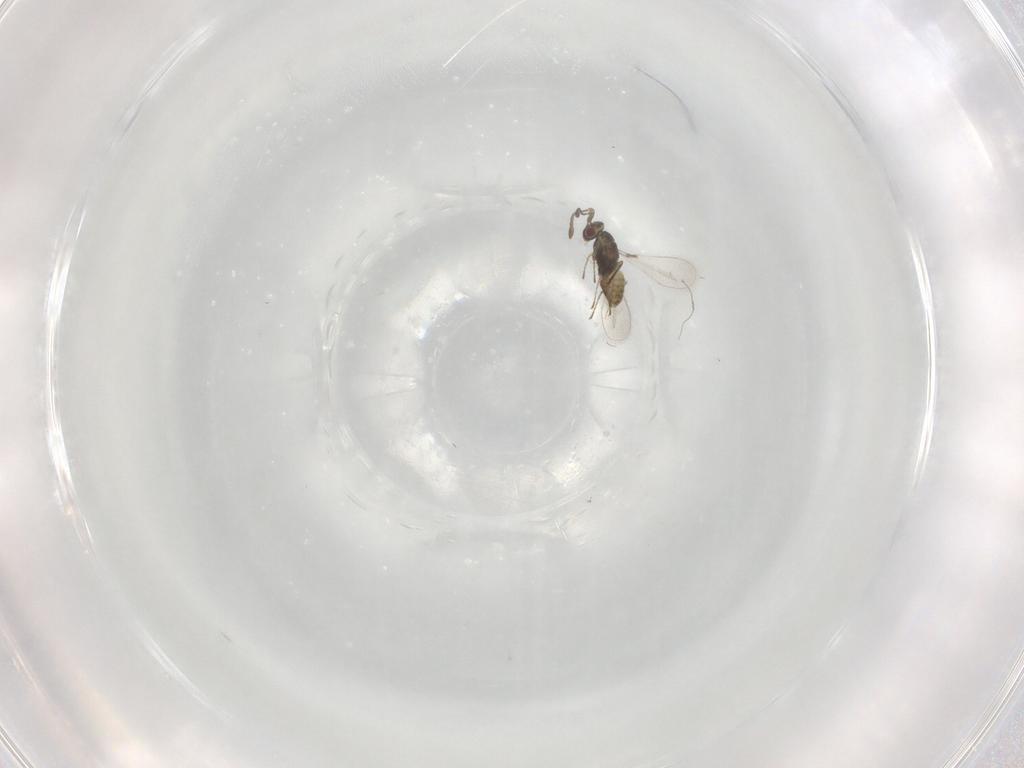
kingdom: Animalia
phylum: Arthropoda
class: Insecta
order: Hymenoptera
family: Mymaridae
